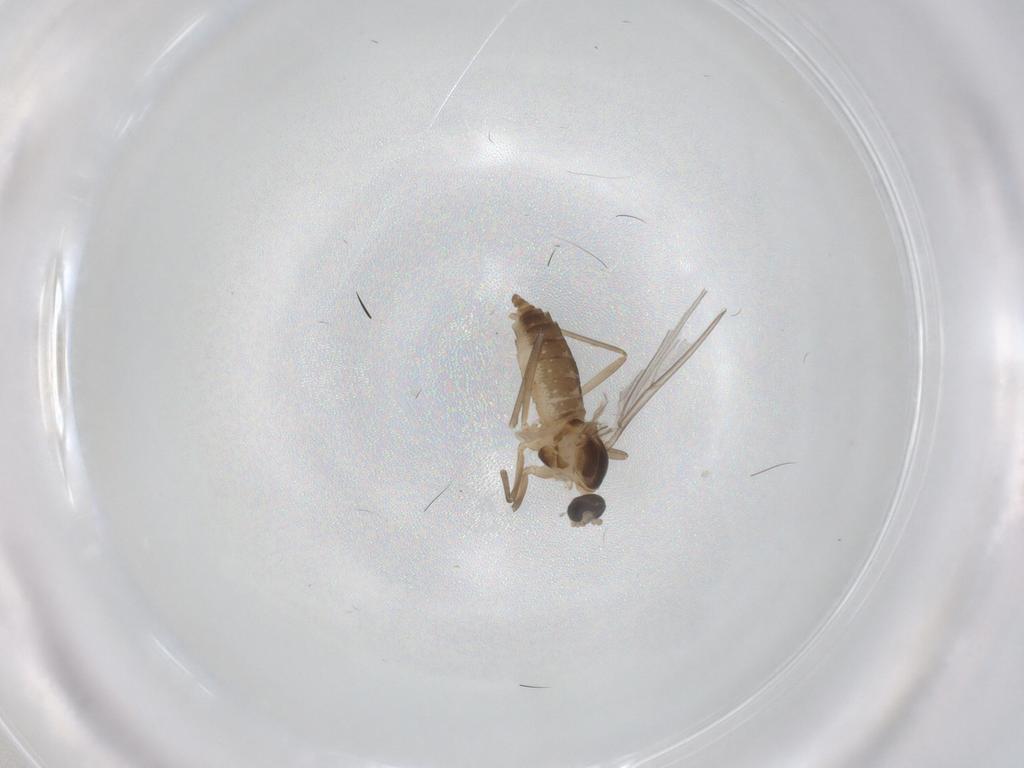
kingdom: Animalia
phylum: Arthropoda
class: Insecta
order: Diptera
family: Cecidomyiidae
